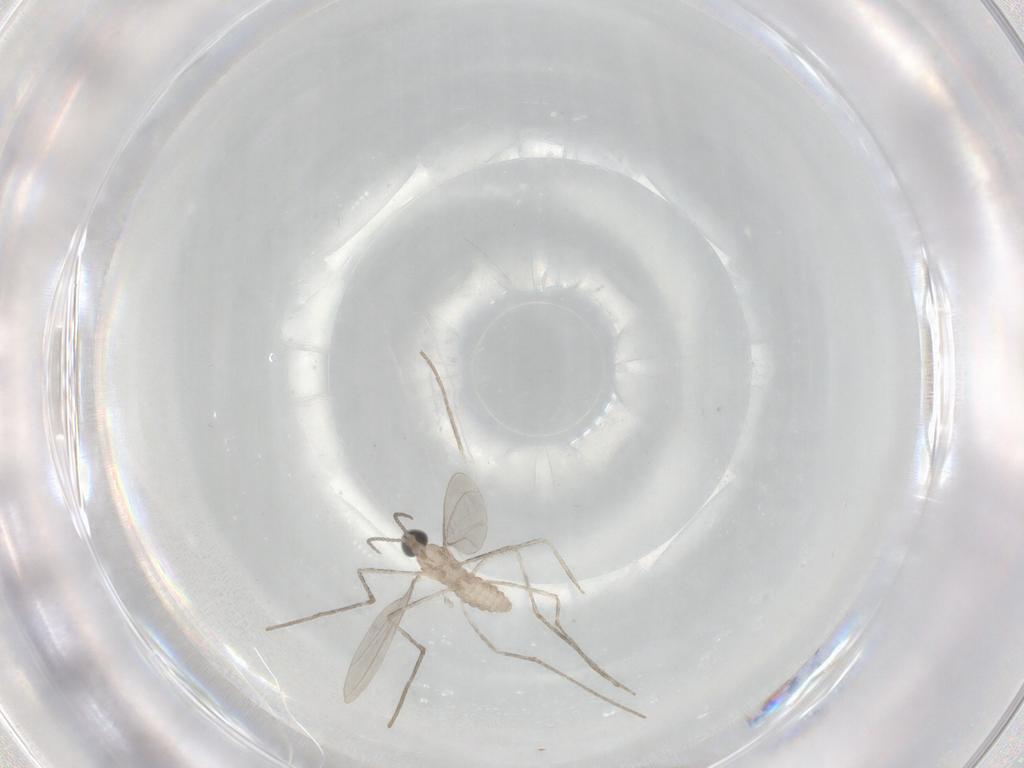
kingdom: Animalia
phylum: Arthropoda
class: Insecta
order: Diptera
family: Cecidomyiidae
